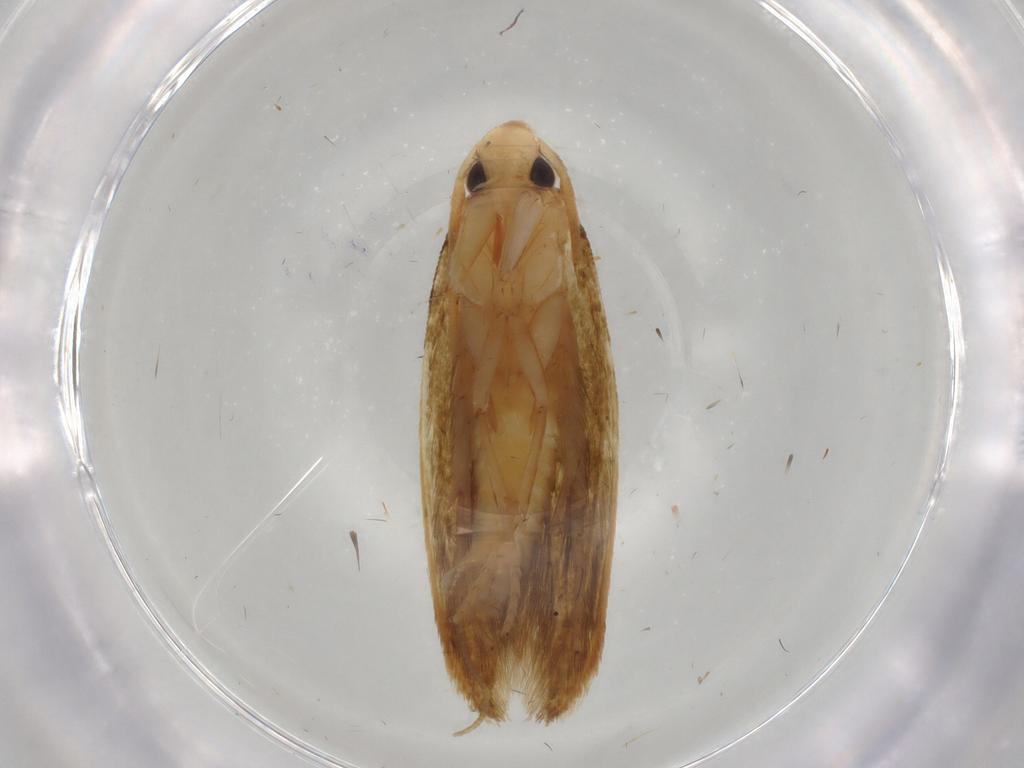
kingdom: Animalia
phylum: Arthropoda
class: Insecta
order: Lepidoptera
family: Tineidae
